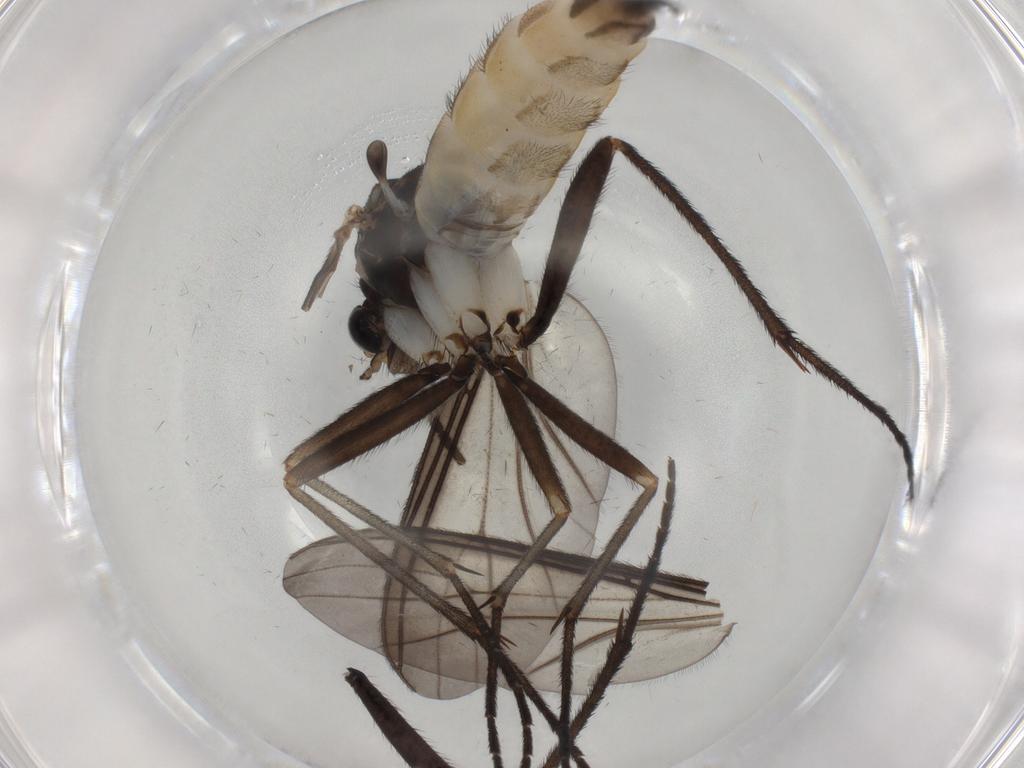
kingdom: Animalia
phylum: Arthropoda
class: Insecta
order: Diptera
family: Sciaridae
